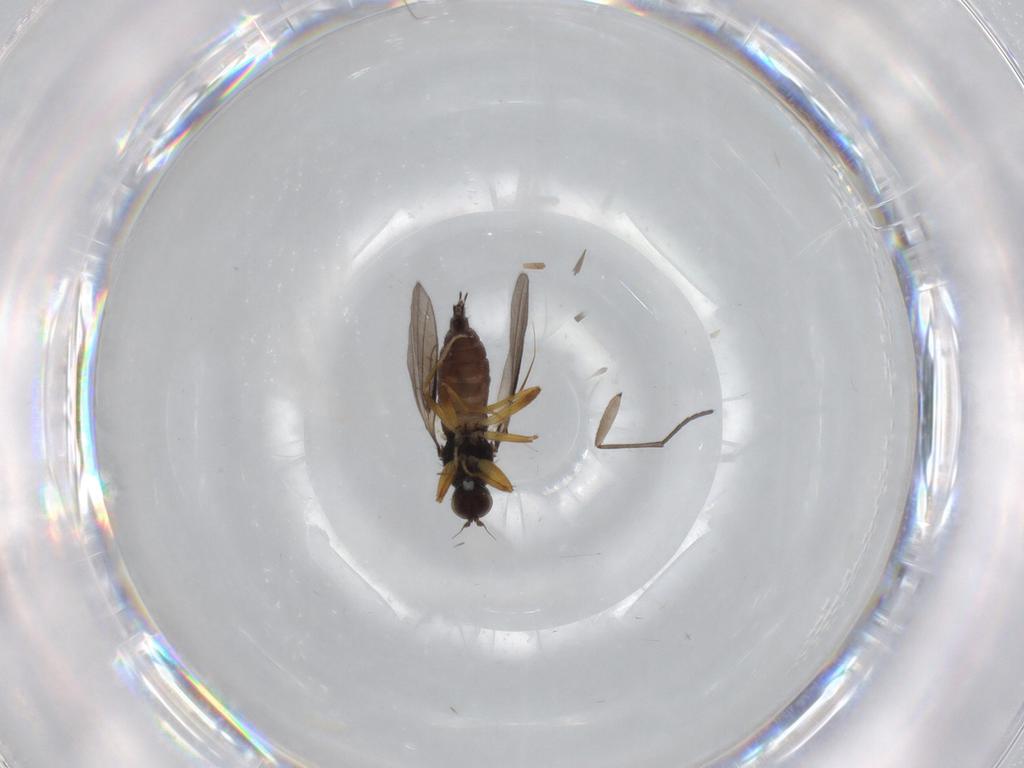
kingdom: Animalia
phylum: Arthropoda
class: Insecta
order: Diptera
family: Hybotidae
